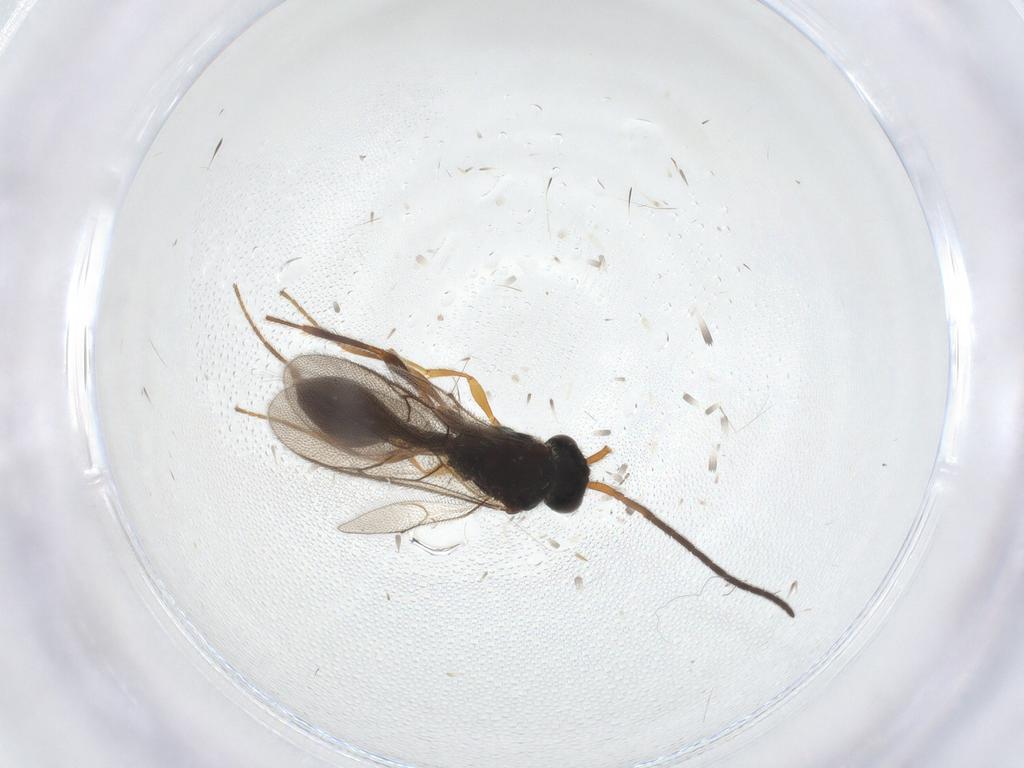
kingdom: Animalia
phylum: Arthropoda
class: Insecta
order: Hymenoptera
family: Diapriidae
